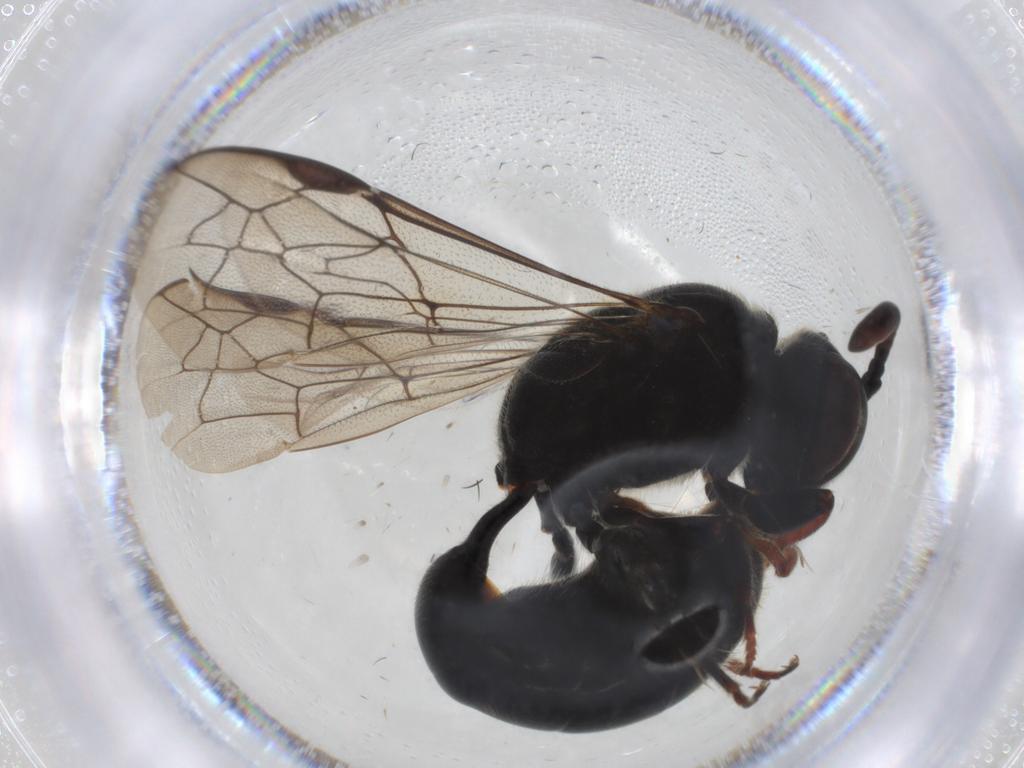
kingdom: Animalia
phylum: Arthropoda
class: Insecta
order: Hymenoptera
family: Psenidae
